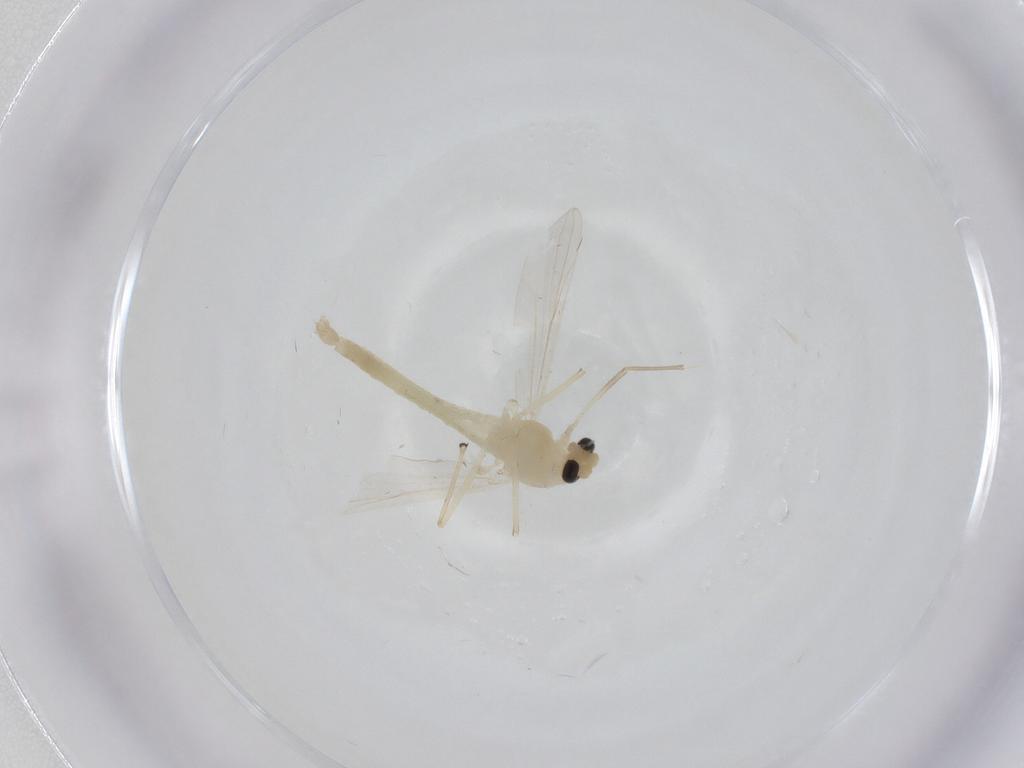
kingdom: Animalia
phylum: Arthropoda
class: Insecta
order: Diptera
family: Chironomidae
